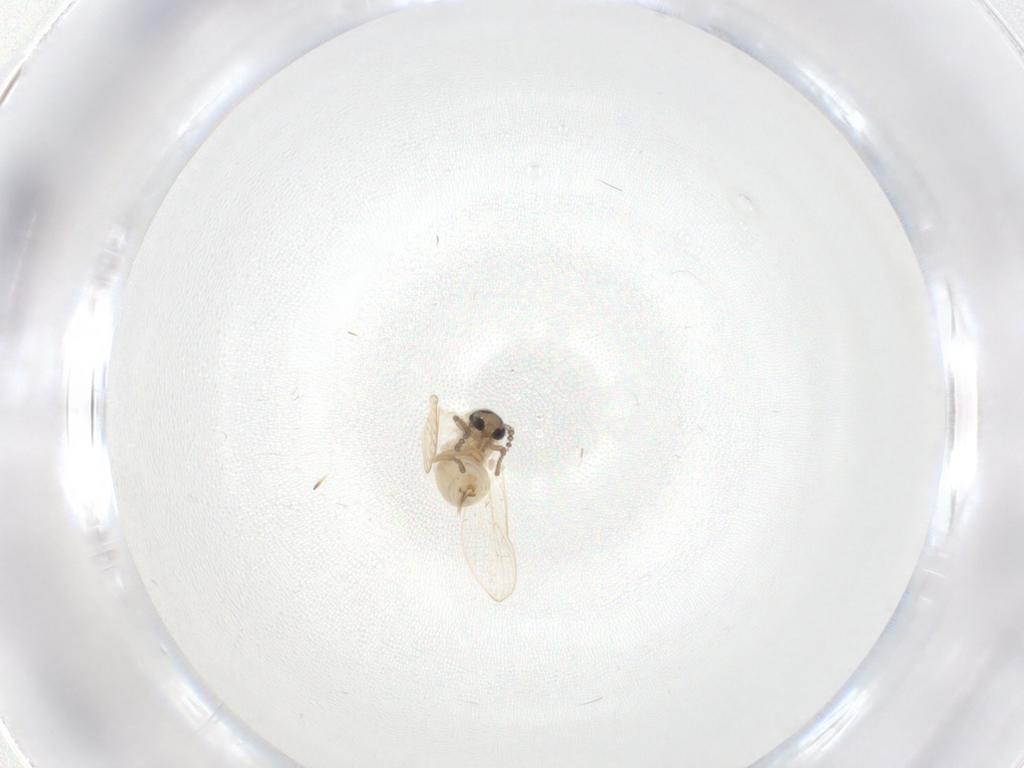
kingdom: Animalia
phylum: Arthropoda
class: Insecta
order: Diptera
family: Psychodidae
